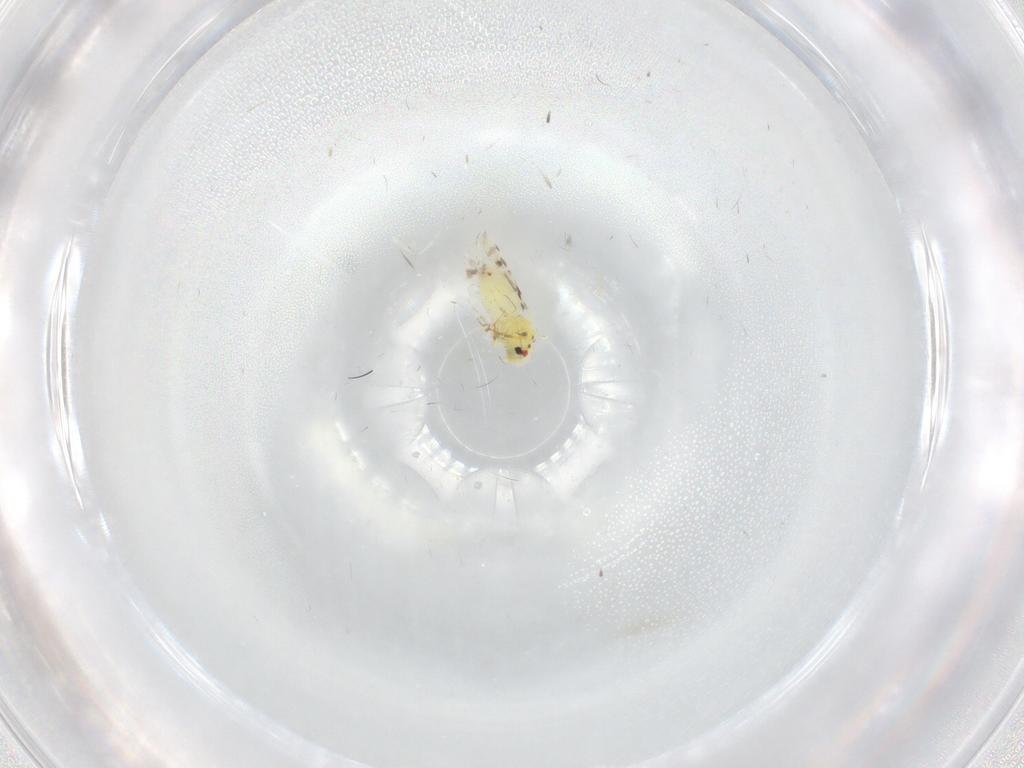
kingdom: Animalia
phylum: Arthropoda
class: Insecta
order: Diptera
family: Cecidomyiidae
